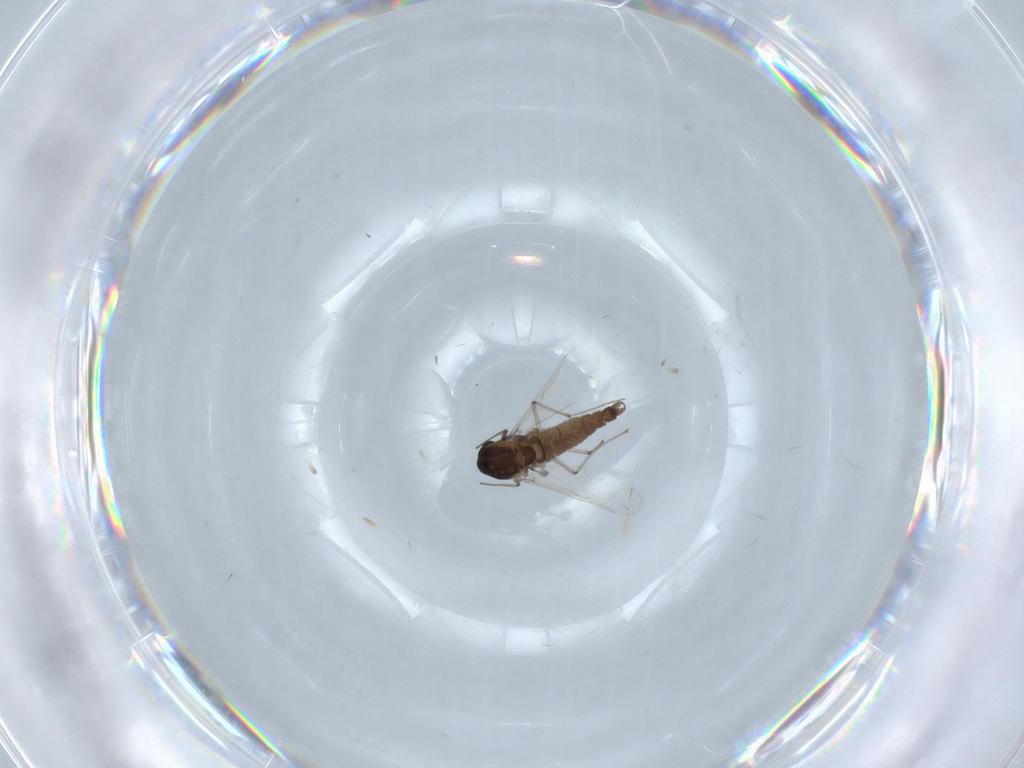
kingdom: Animalia
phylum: Arthropoda
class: Insecta
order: Diptera
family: Chironomidae
